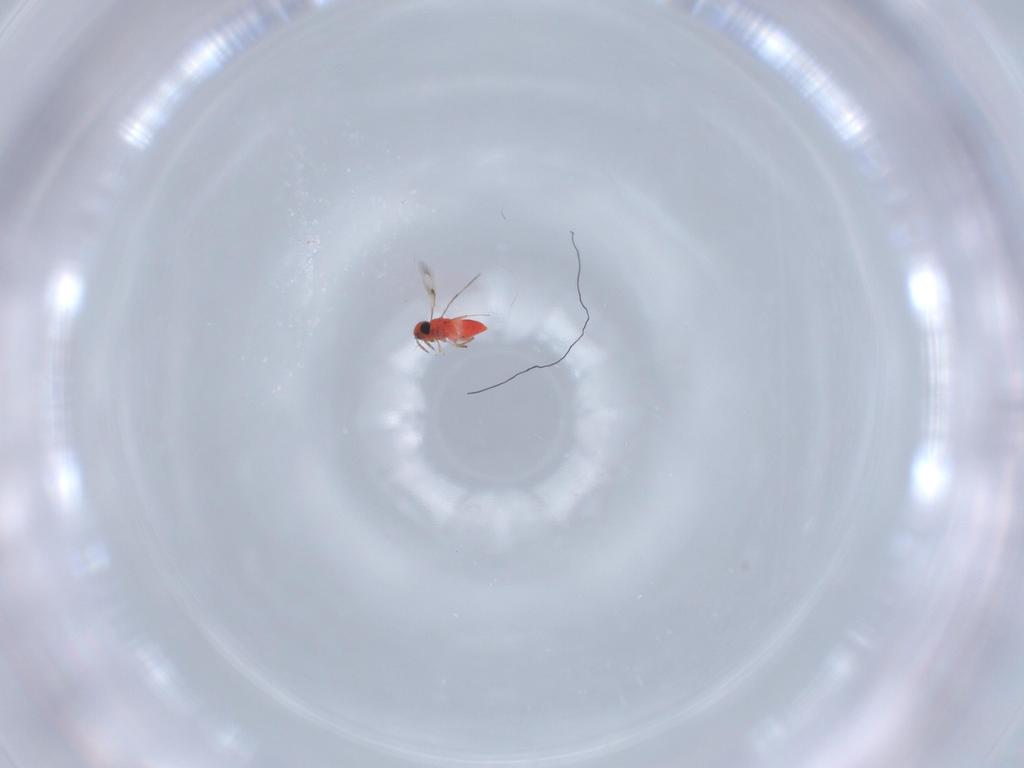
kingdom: Animalia
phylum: Arthropoda
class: Insecta
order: Hymenoptera
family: Trichogrammatidae
